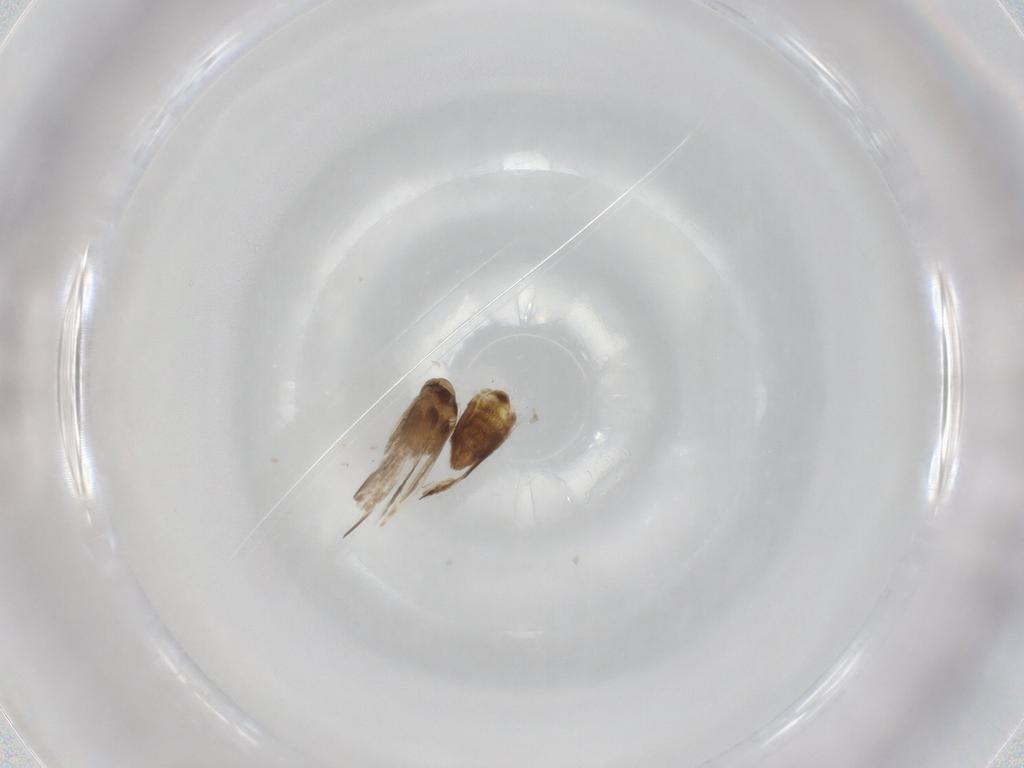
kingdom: Animalia
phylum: Arthropoda
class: Insecta
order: Lepidoptera
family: Nymphalidae
